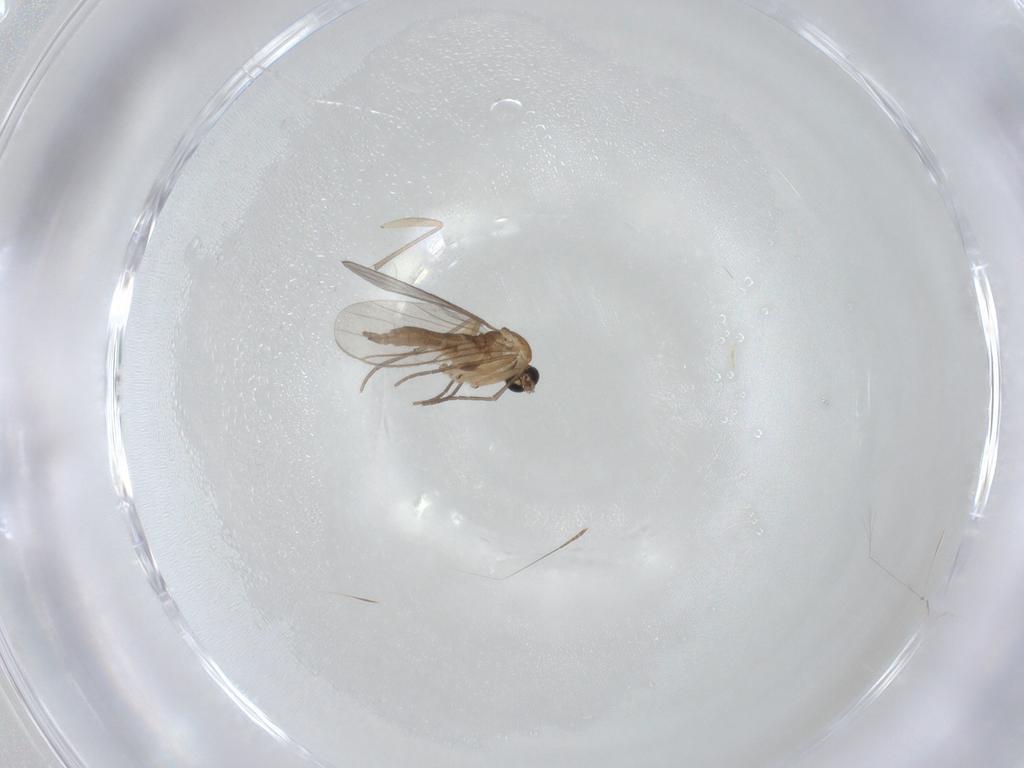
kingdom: Animalia
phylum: Arthropoda
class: Insecta
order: Diptera
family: Sciaridae
